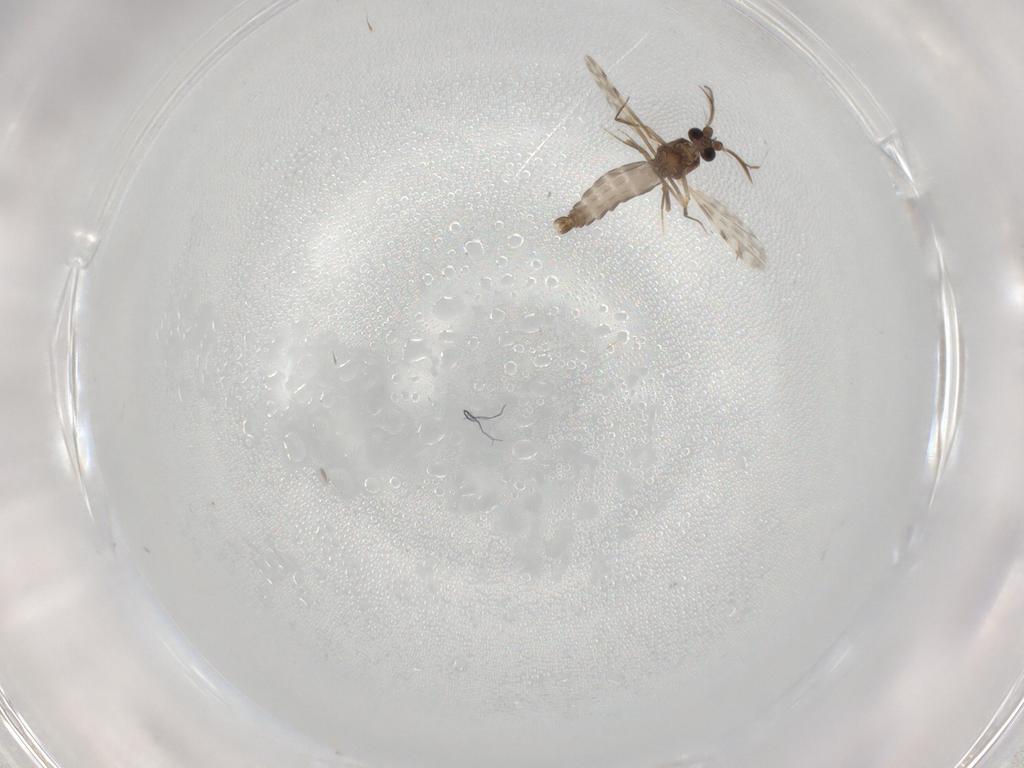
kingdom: Animalia
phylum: Arthropoda
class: Insecta
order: Diptera
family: Ceratopogonidae
